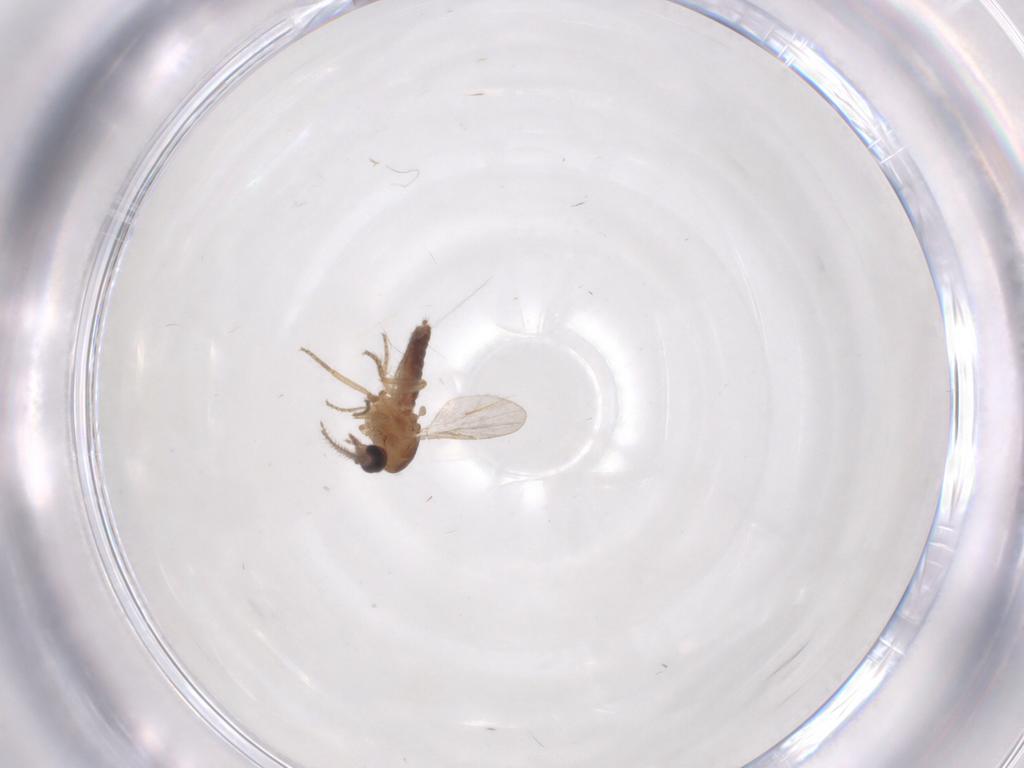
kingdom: Animalia
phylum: Arthropoda
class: Insecta
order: Diptera
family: Ceratopogonidae
